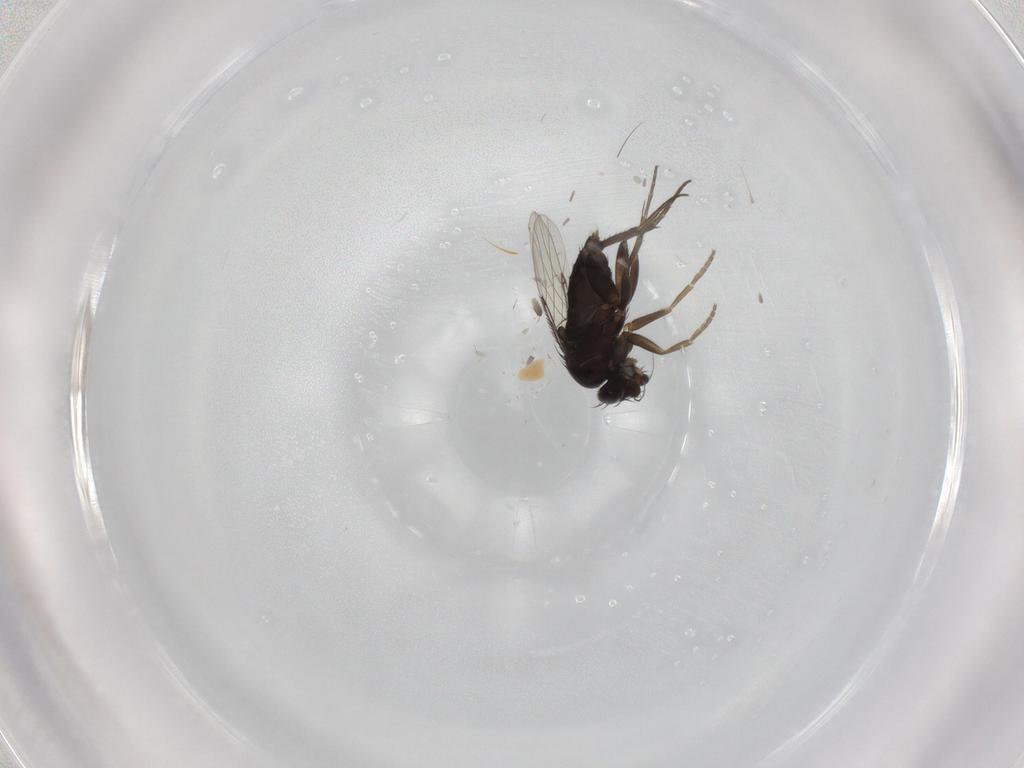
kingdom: Animalia
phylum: Arthropoda
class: Insecta
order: Diptera
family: Phoridae
